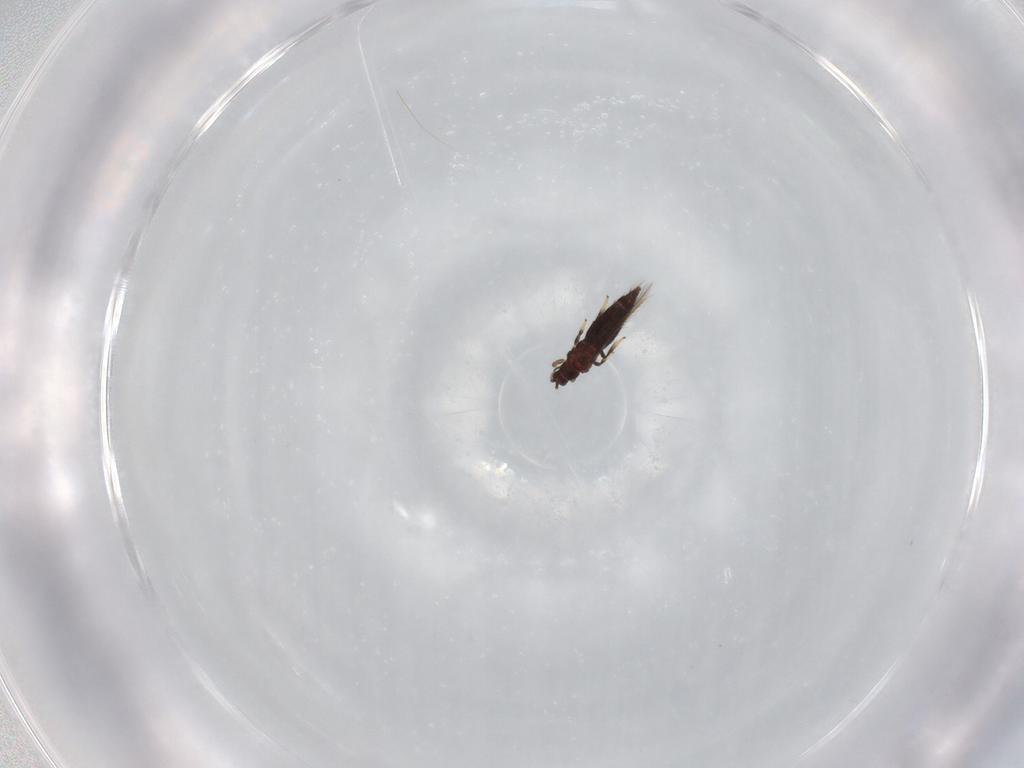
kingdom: Animalia
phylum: Arthropoda
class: Insecta
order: Thysanoptera
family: Thripidae
